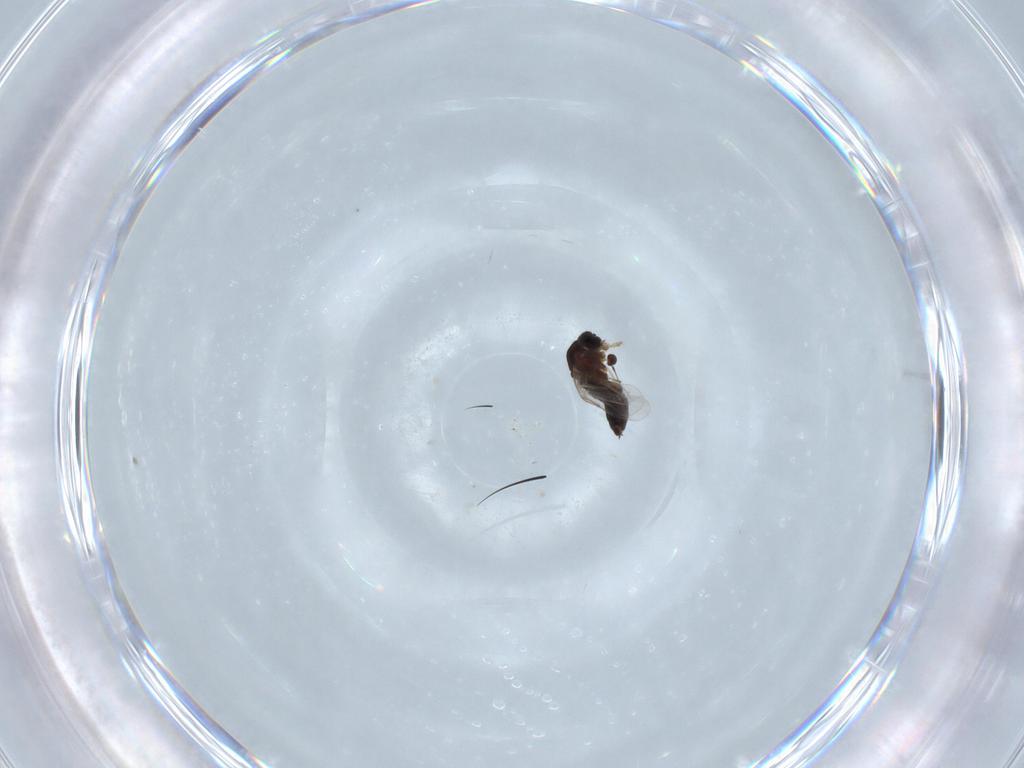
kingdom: Animalia
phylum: Arthropoda
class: Insecta
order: Diptera
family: Scatopsidae
